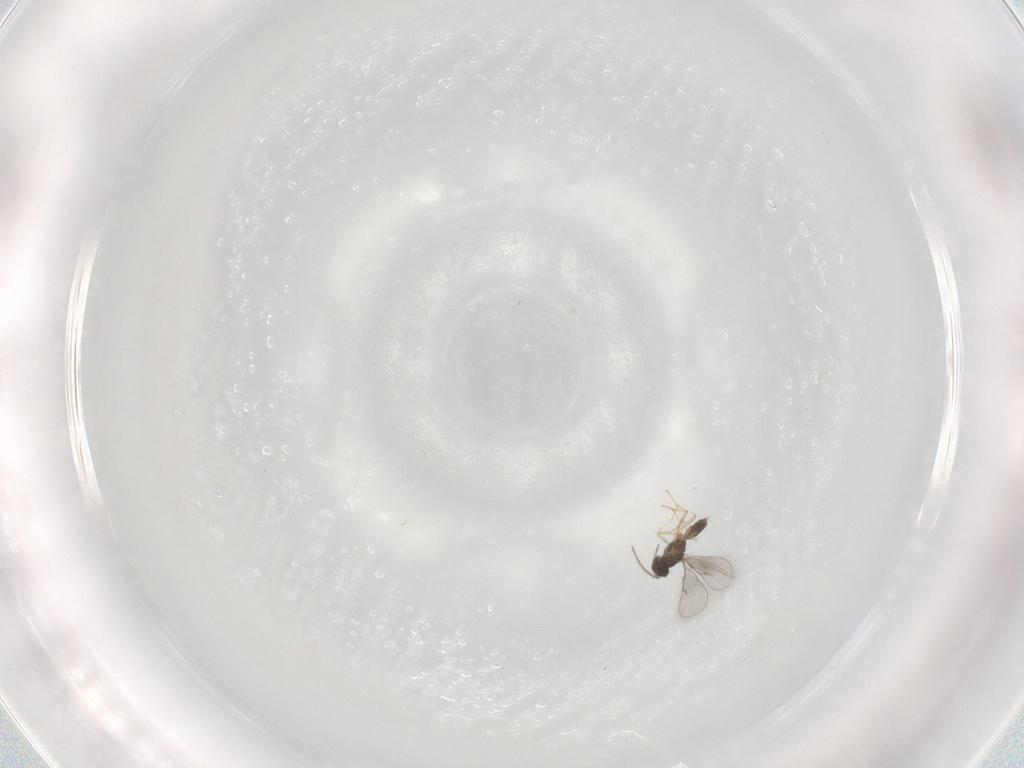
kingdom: Animalia
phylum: Arthropoda
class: Insecta
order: Hymenoptera
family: Eulophidae
